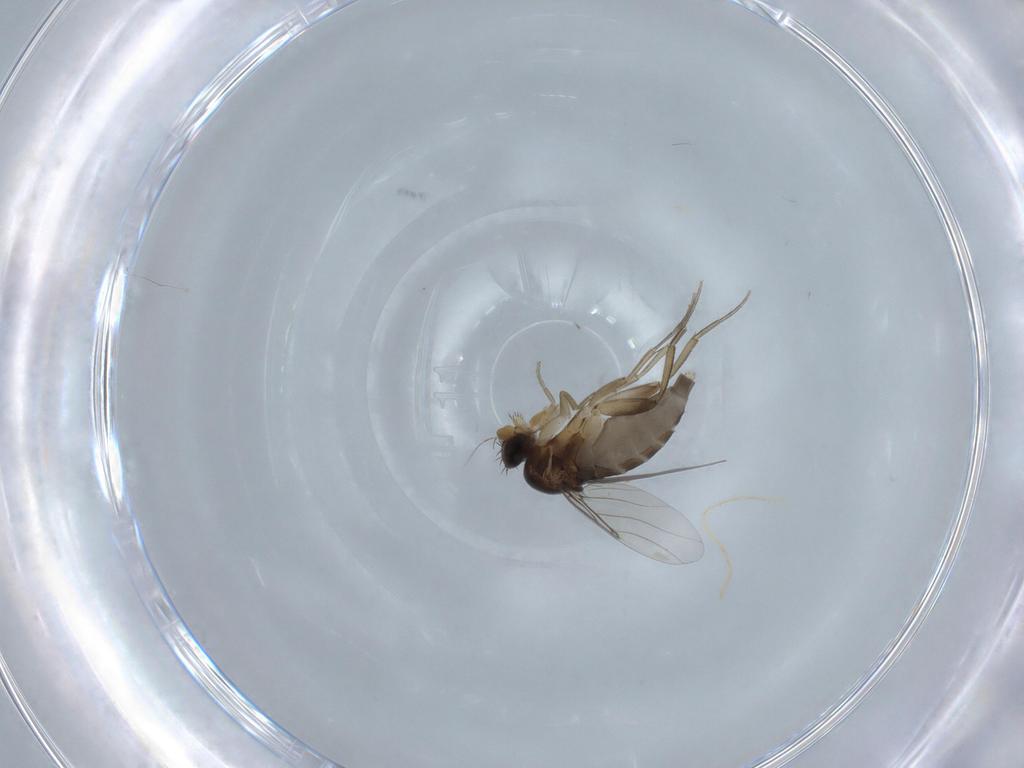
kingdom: Animalia
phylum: Arthropoda
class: Insecta
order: Diptera
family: Phoridae
